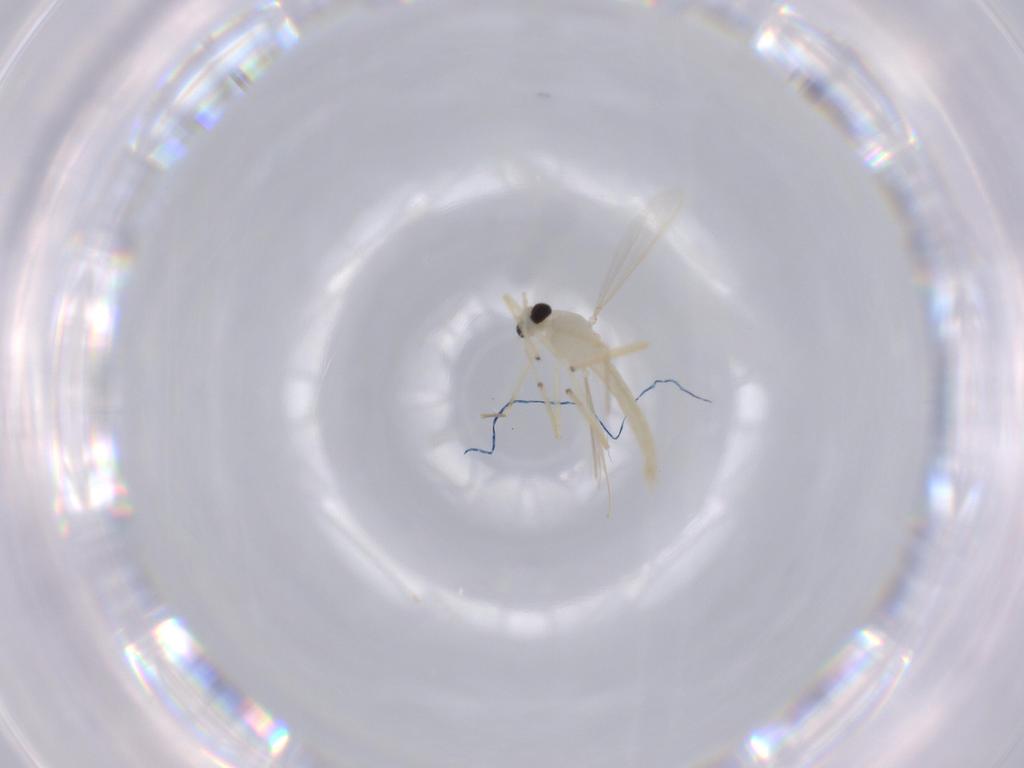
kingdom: Animalia
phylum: Arthropoda
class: Insecta
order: Diptera
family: Chironomidae
